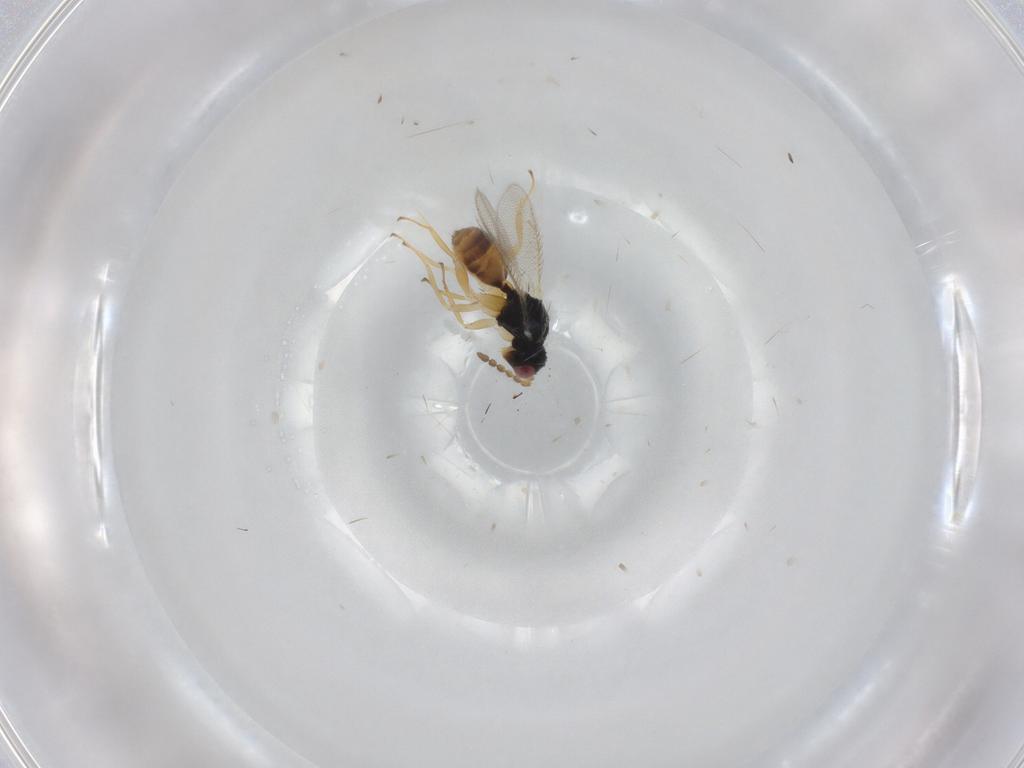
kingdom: Animalia
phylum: Arthropoda
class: Insecta
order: Hymenoptera
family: Eulophidae
